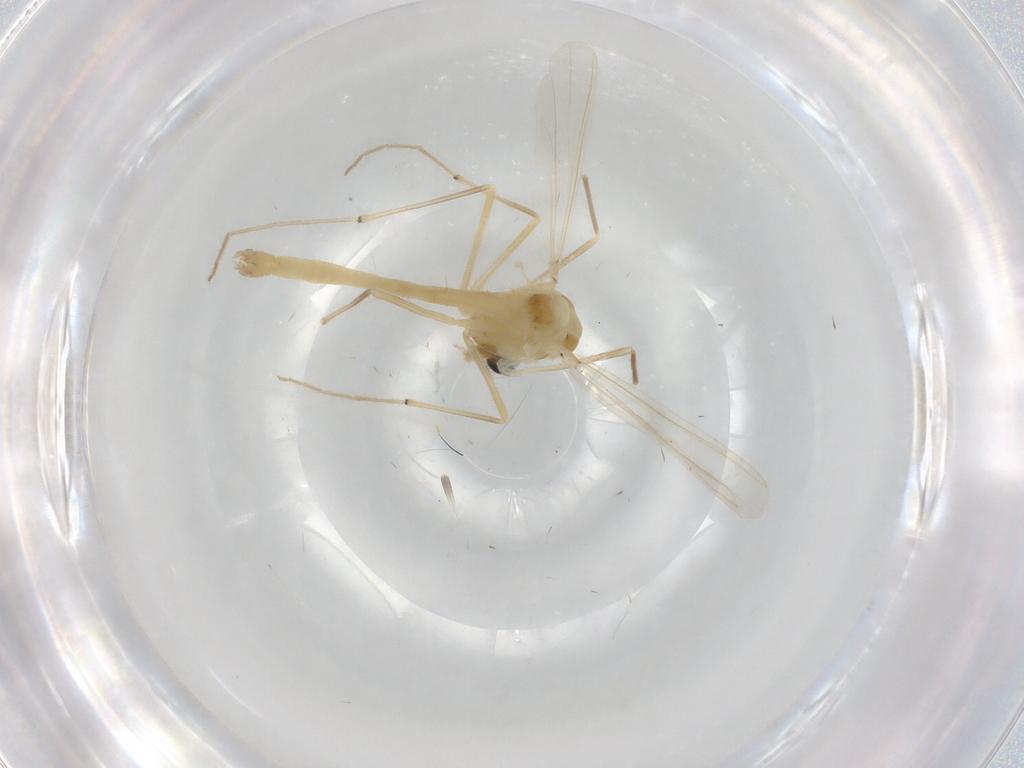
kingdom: Animalia
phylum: Arthropoda
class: Insecta
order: Diptera
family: Chironomidae
